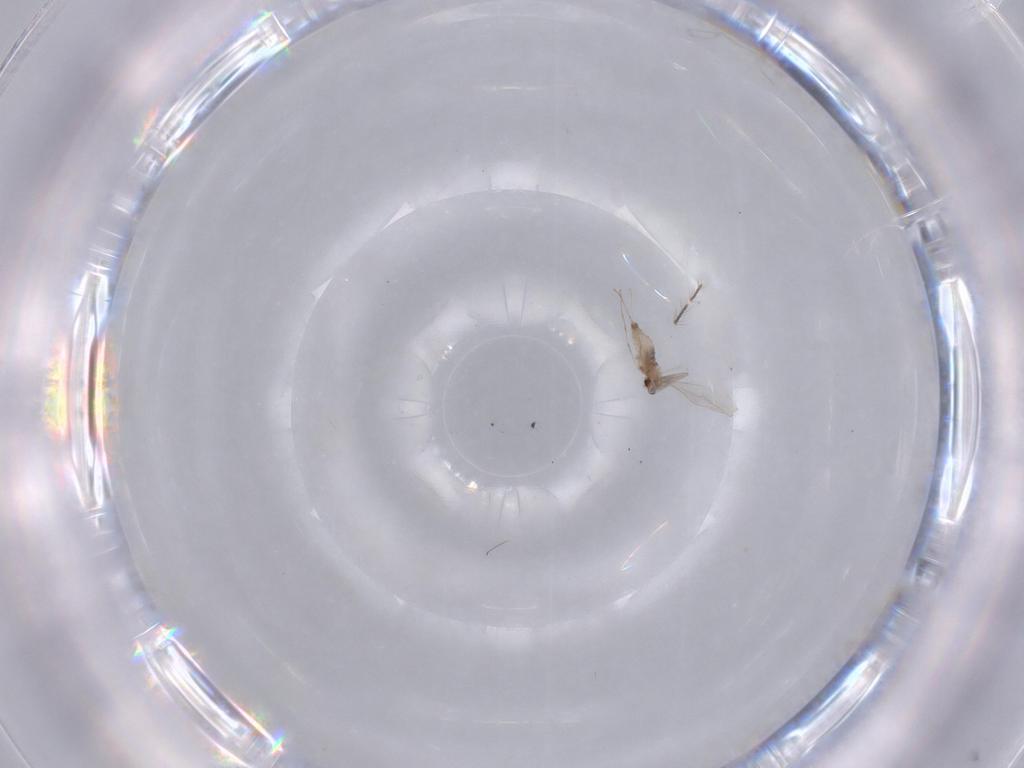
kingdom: Animalia
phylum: Arthropoda
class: Insecta
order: Diptera
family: Cecidomyiidae
